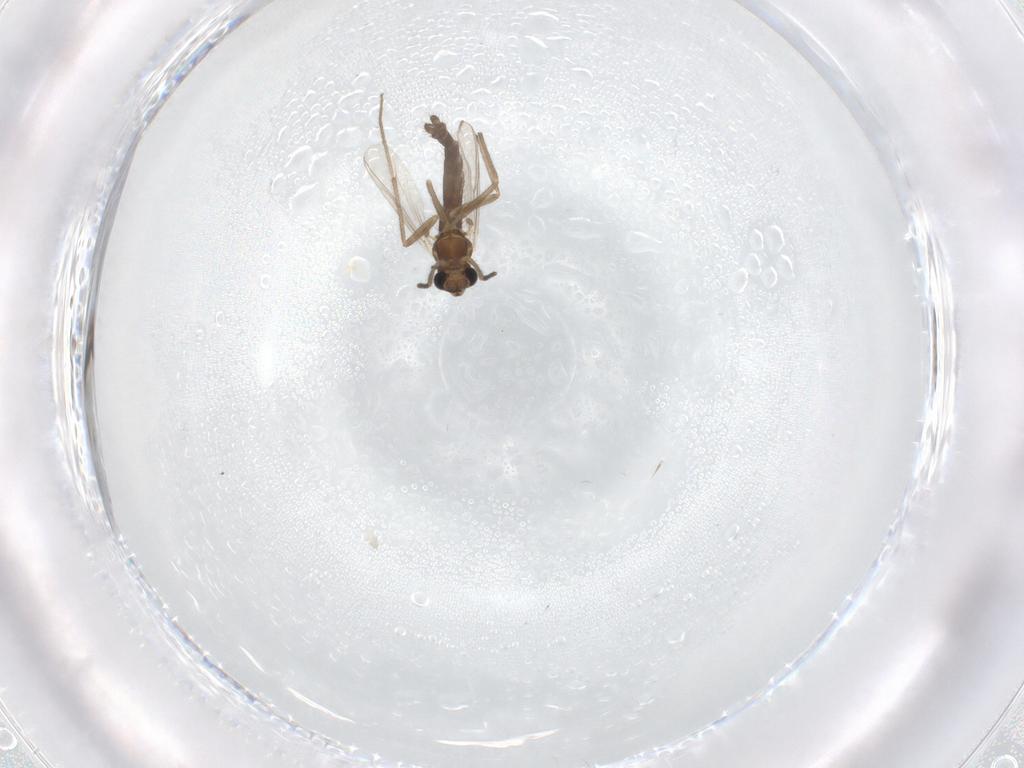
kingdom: Animalia
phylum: Arthropoda
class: Insecta
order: Diptera
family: Chironomidae
